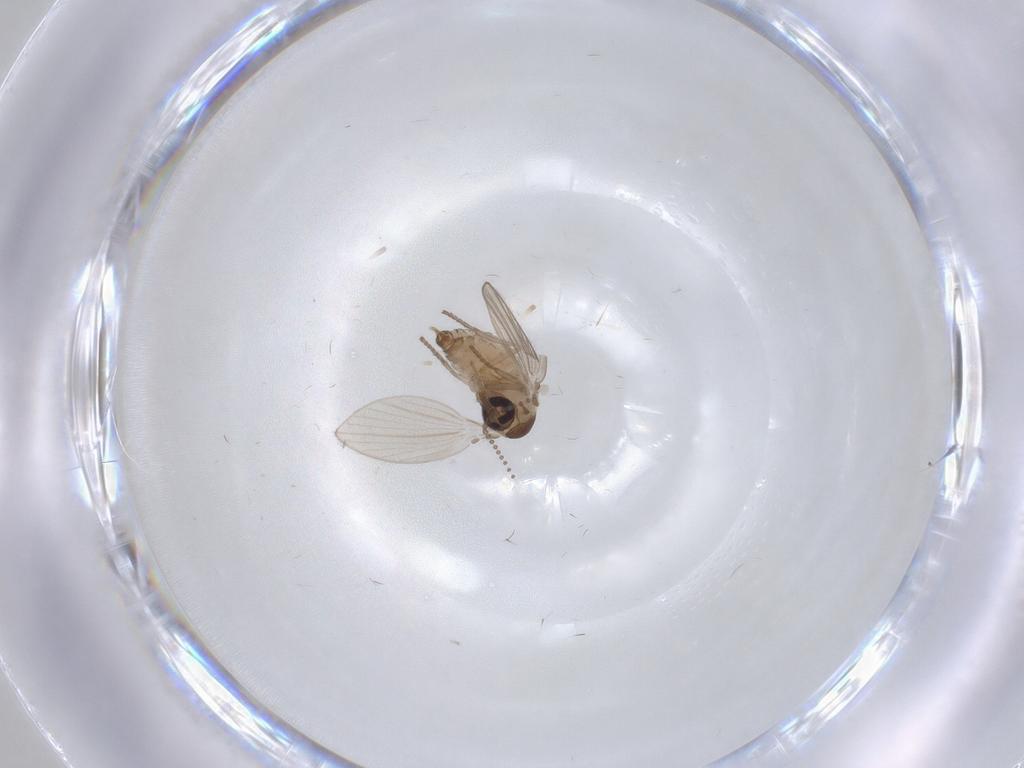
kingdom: Animalia
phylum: Arthropoda
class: Insecta
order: Diptera
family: Psychodidae
